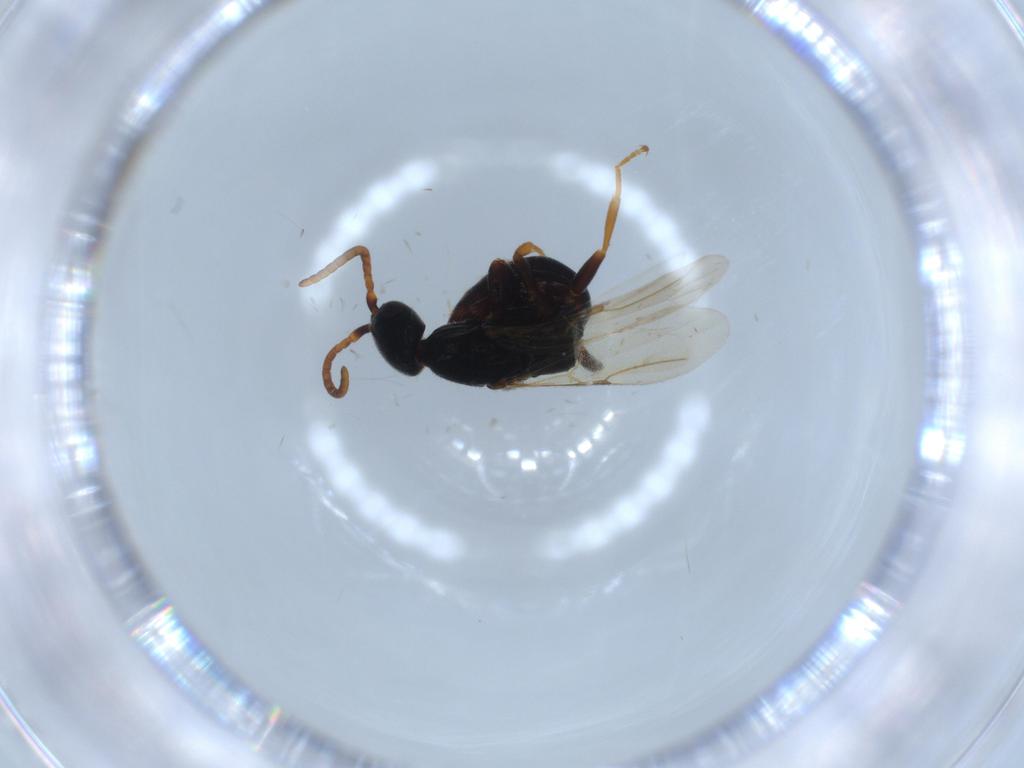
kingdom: Animalia
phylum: Arthropoda
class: Insecta
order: Hymenoptera
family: Bethylidae
